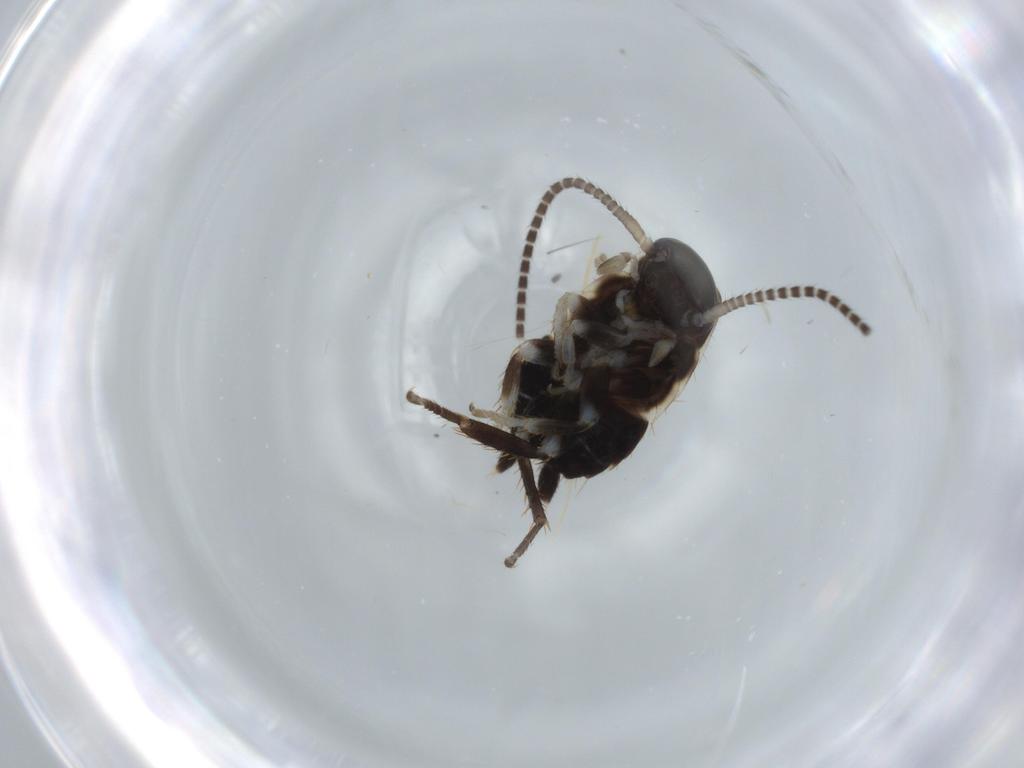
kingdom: Animalia
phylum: Arthropoda
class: Insecta
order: Blattodea
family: Ectobiidae
